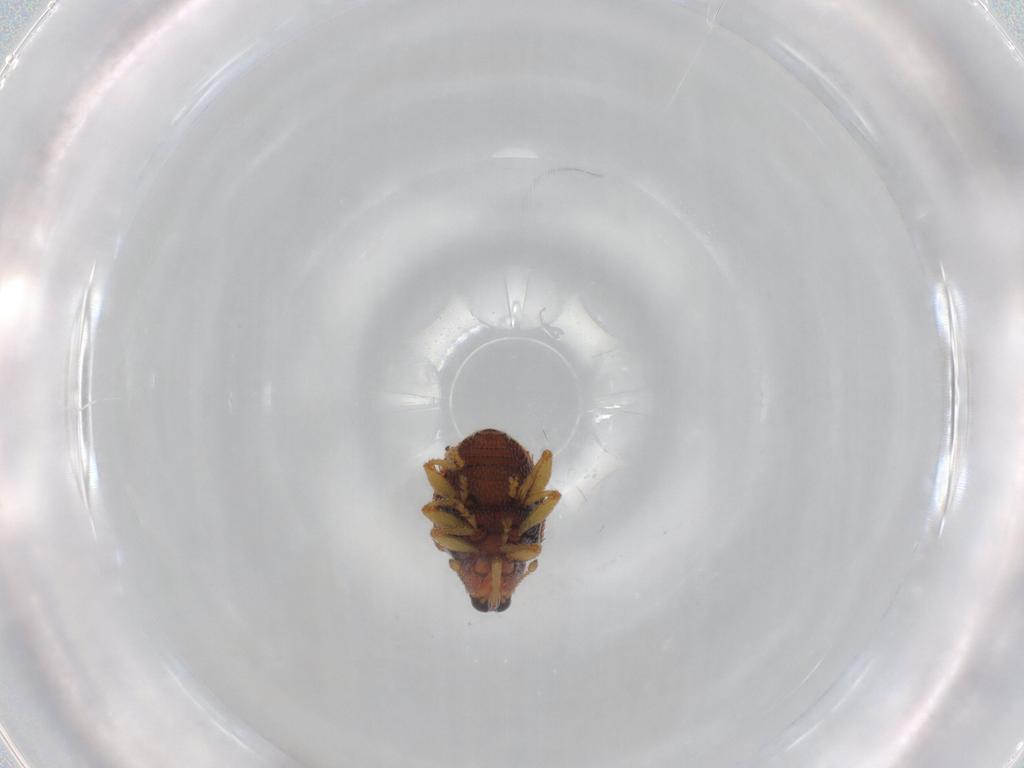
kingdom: Animalia
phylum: Arthropoda
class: Insecta
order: Coleoptera
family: Curculionidae
